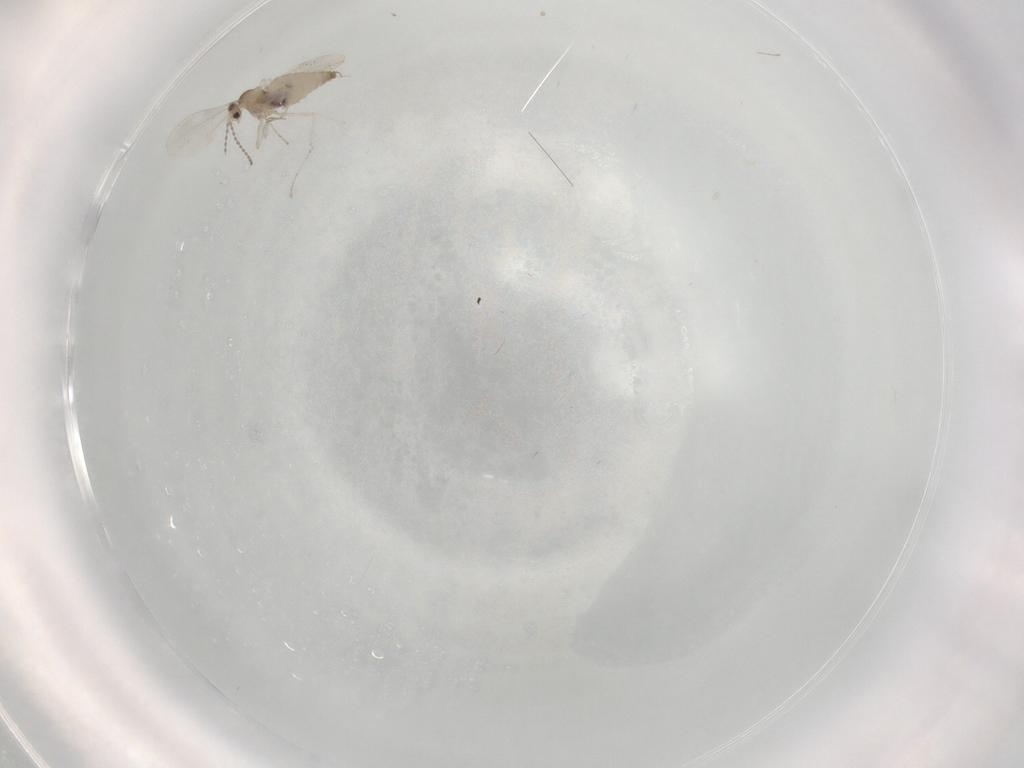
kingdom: Animalia
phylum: Arthropoda
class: Insecta
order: Diptera
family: Cecidomyiidae
